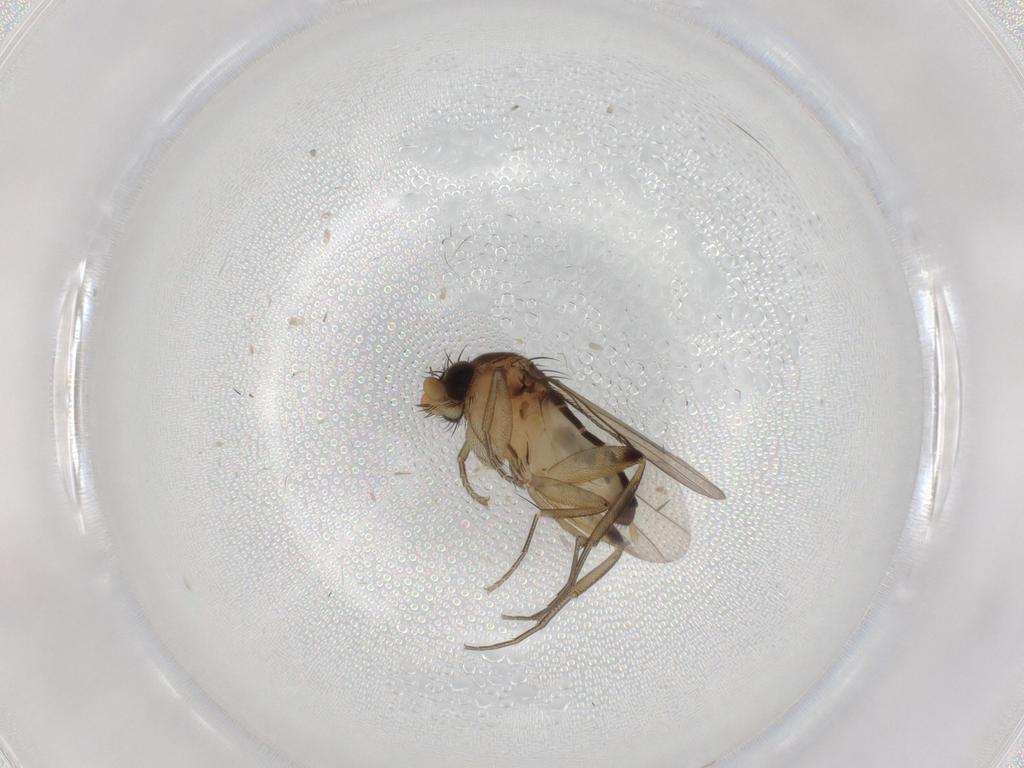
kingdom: Animalia
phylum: Arthropoda
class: Insecta
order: Diptera
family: Phoridae
